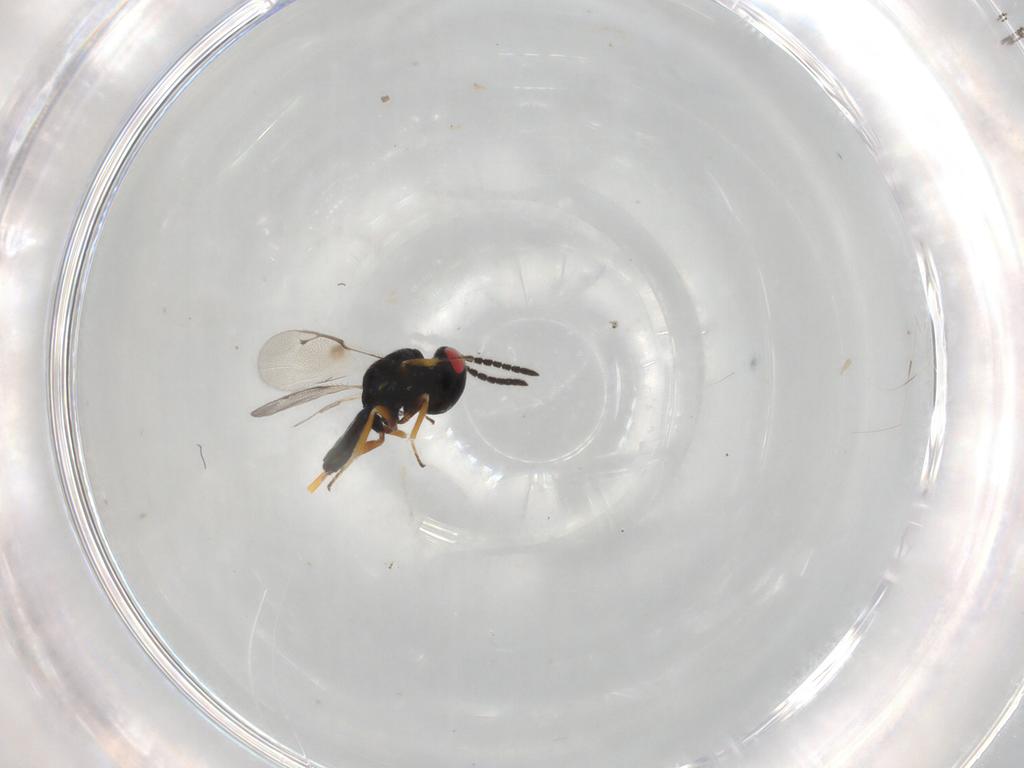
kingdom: Animalia
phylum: Arthropoda
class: Insecta
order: Hymenoptera
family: Pteromalidae
